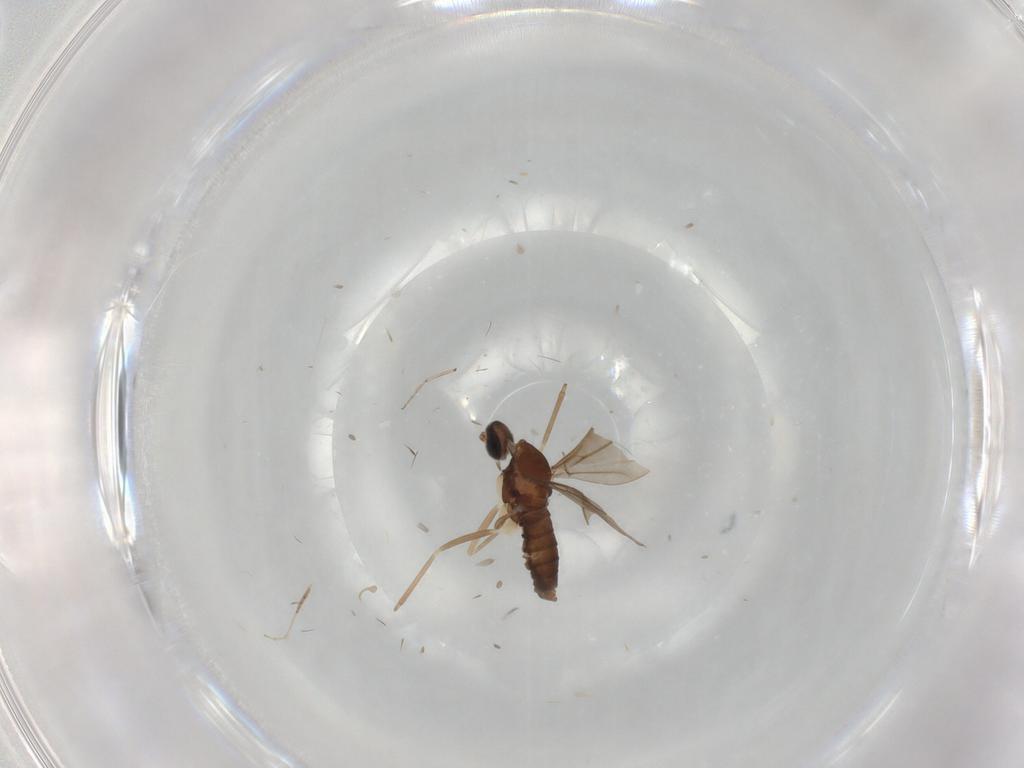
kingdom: Animalia
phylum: Arthropoda
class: Insecta
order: Diptera
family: Cecidomyiidae
